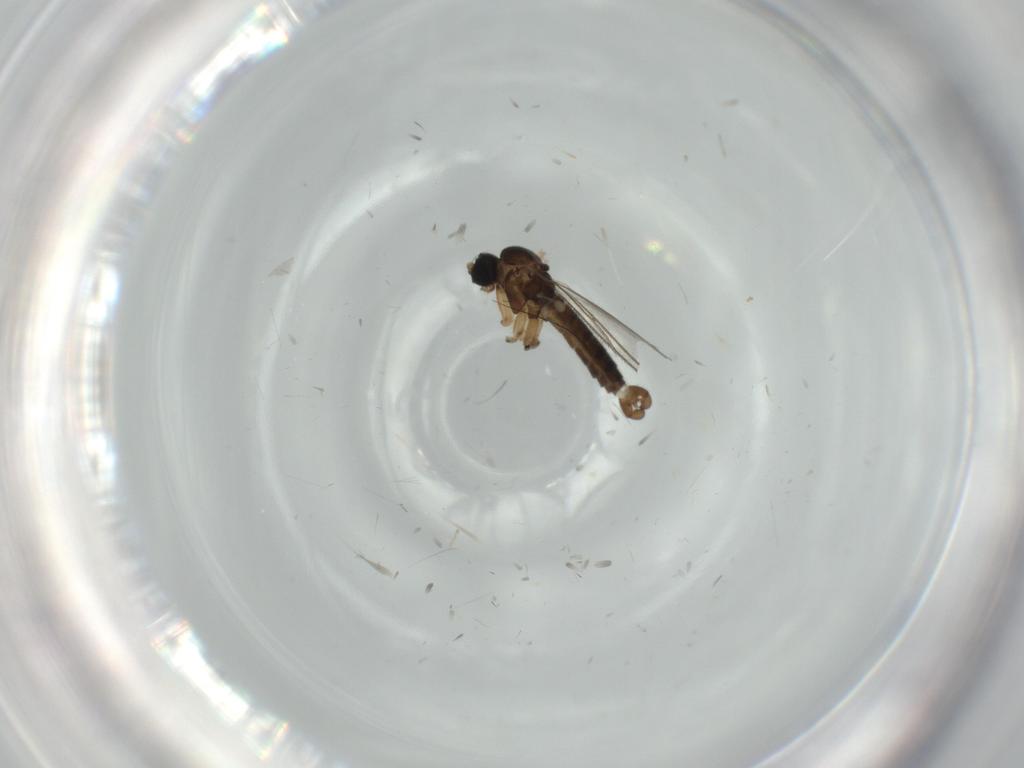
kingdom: Animalia
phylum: Arthropoda
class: Insecta
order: Diptera
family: Sciaridae
